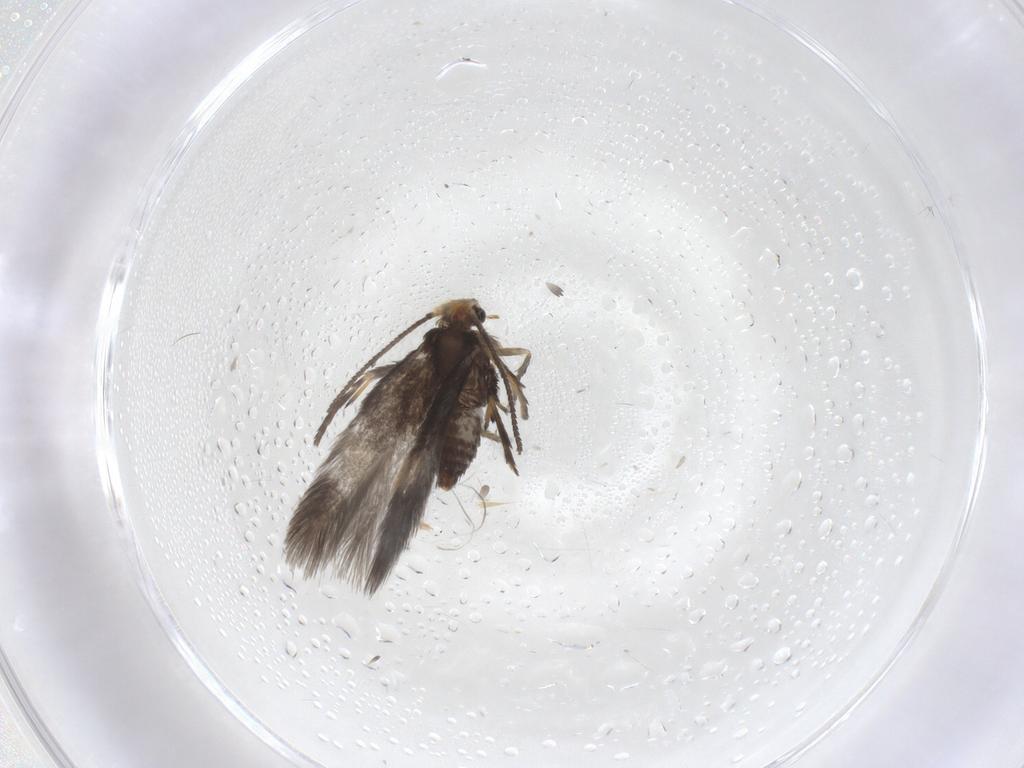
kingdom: Animalia
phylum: Arthropoda
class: Insecta
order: Lepidoptera
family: Nepticulidae
